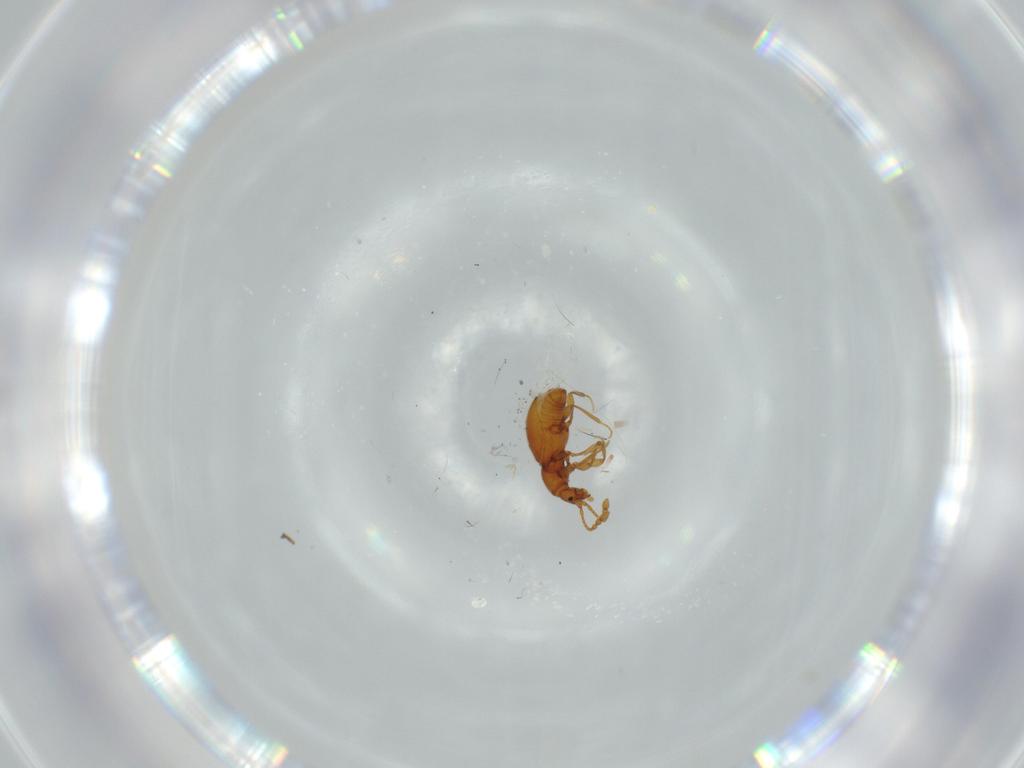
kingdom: Animalia
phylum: Arthropoda
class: Insecta
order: Coleoptera
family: Mycetophagidae
